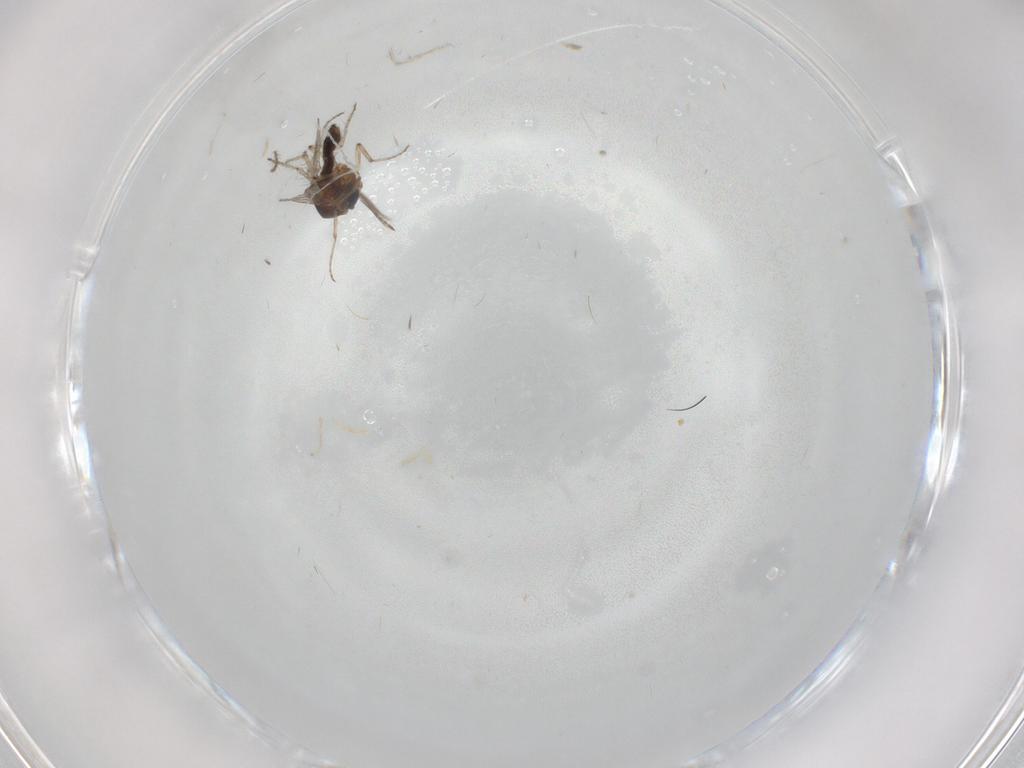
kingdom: Animalia
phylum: Arthropoda
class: Insecta
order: Diptera
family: Ceratopogonidae
